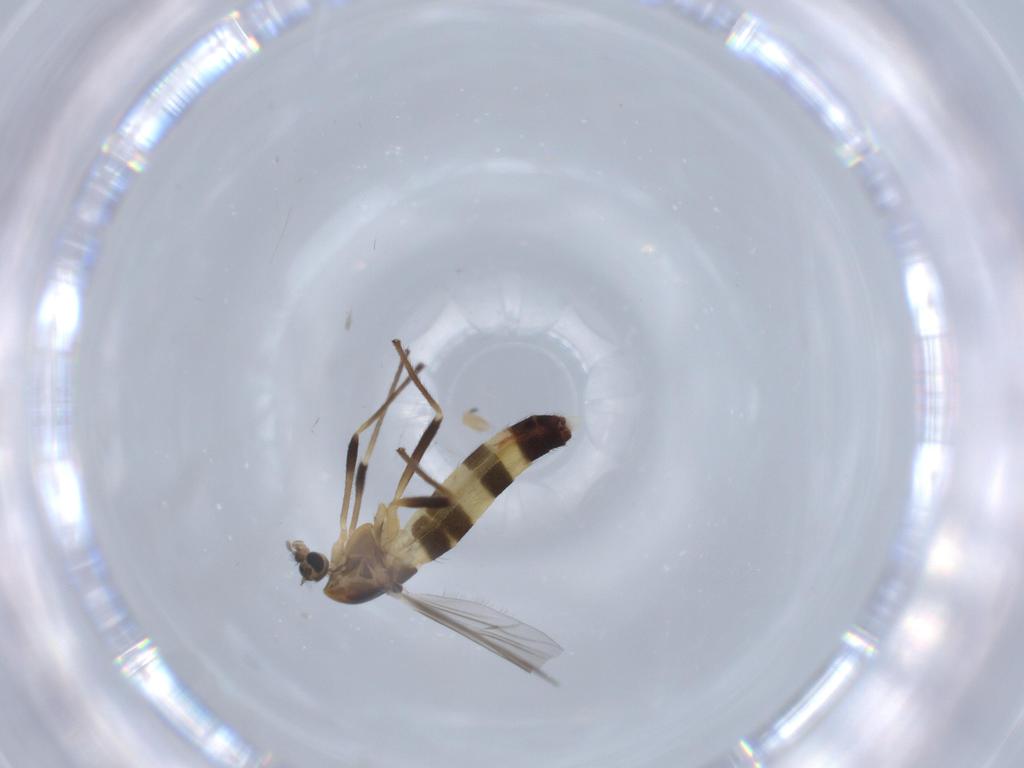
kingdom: Animalia
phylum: Arthropoda
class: Insecta
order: Diptera
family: Chironomidae
